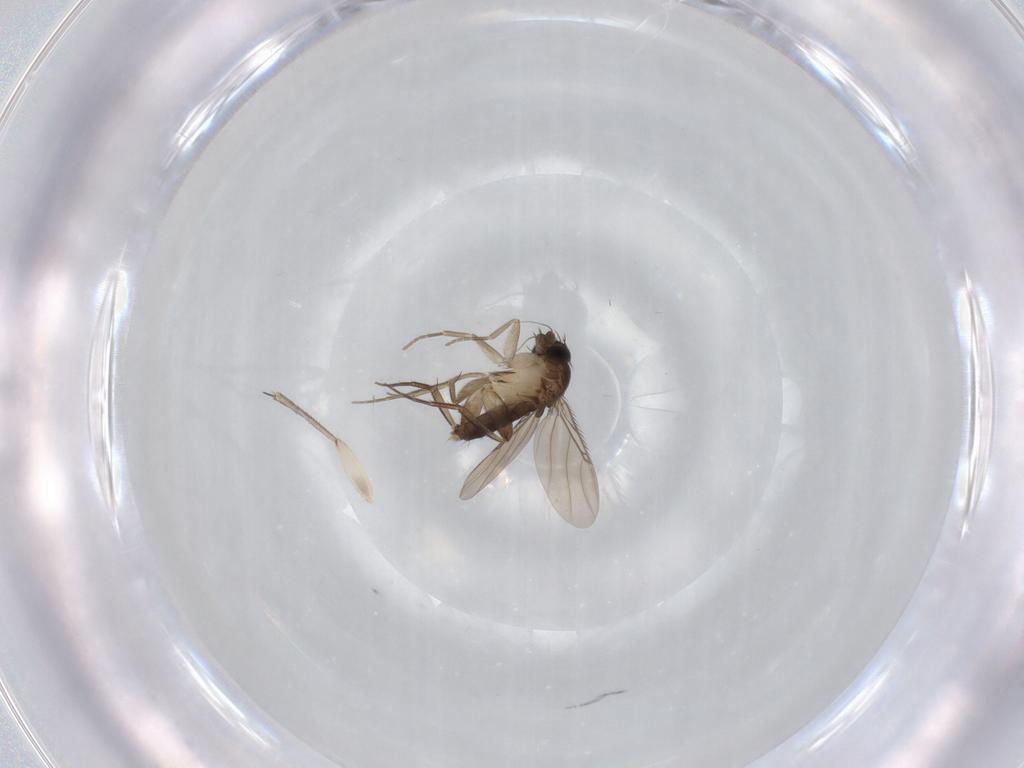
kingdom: Animalia
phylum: Arthropoda
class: Insecta
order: Diptera
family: Phoridae
